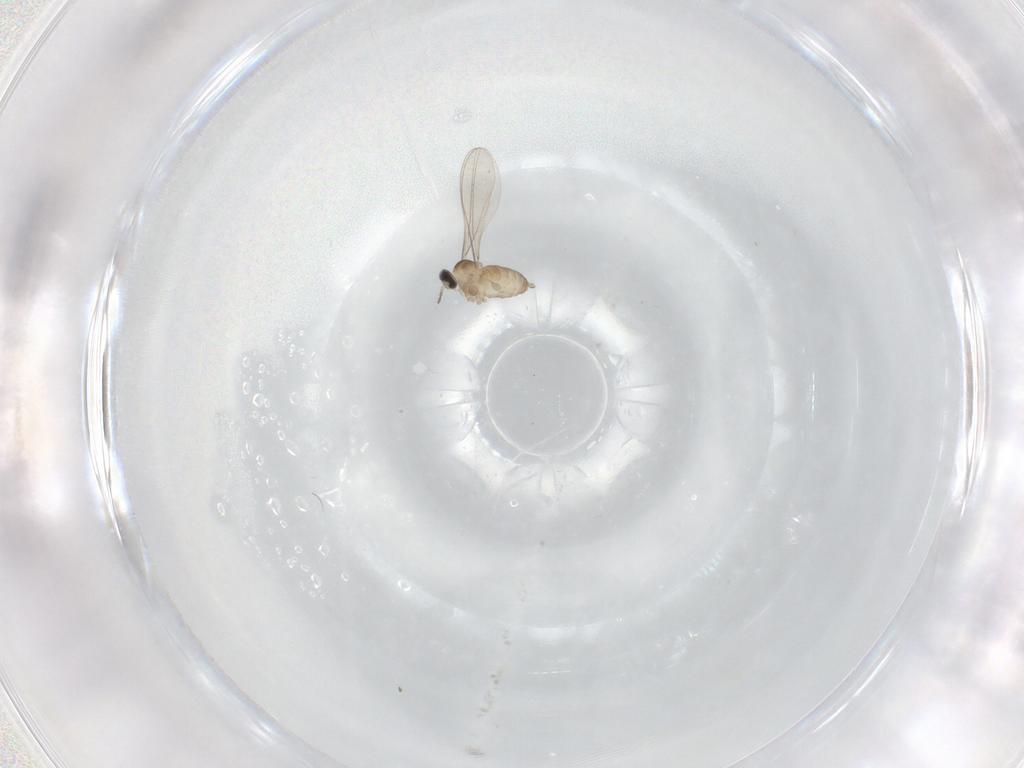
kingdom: Animalia
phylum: Arthropoda
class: Insecta
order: Diptera
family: Cecidomyiidae
